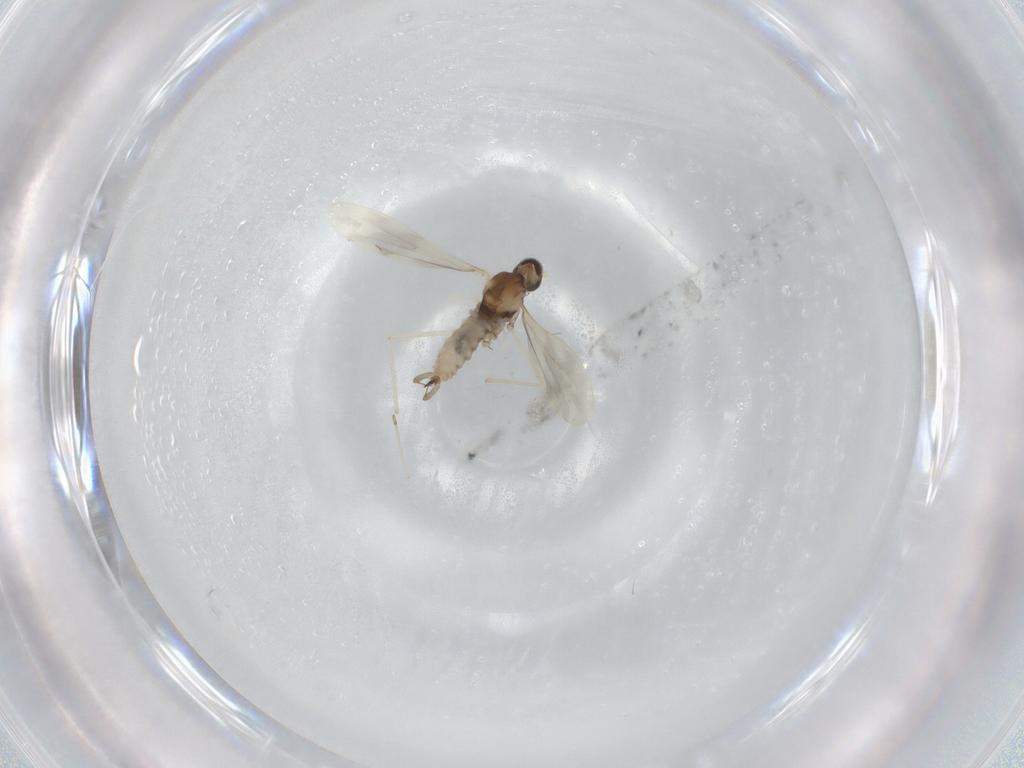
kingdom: Animalia
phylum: Arthropoda
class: Insecta
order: Diptera
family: Cecidomyiidae
